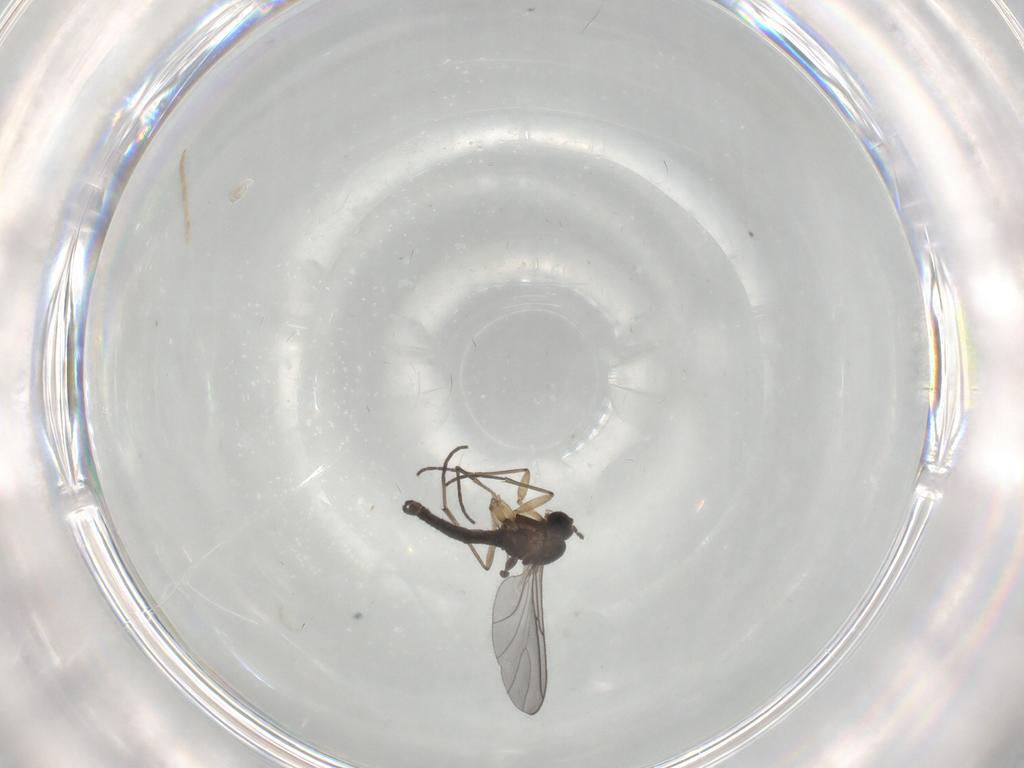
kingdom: Animalia
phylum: Arthropoda
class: Insecta
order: Diptera
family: Sciaridae
